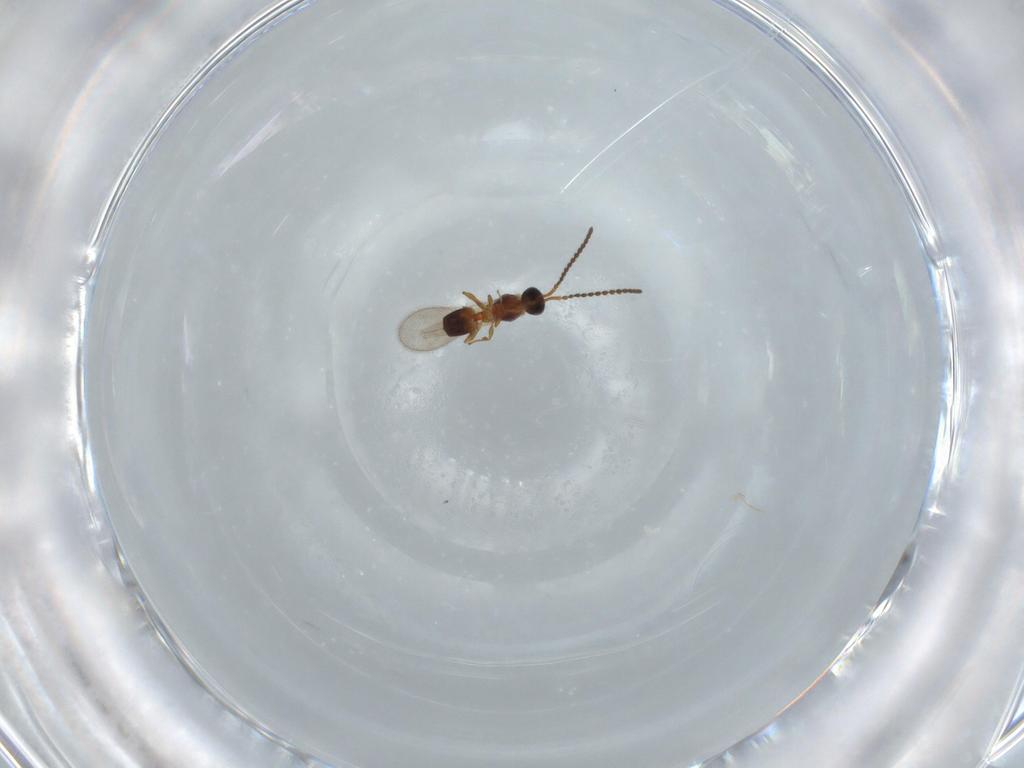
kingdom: Animalia
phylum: Arthropoda
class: Insecta
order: Hymenoptera
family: Diapriidae
